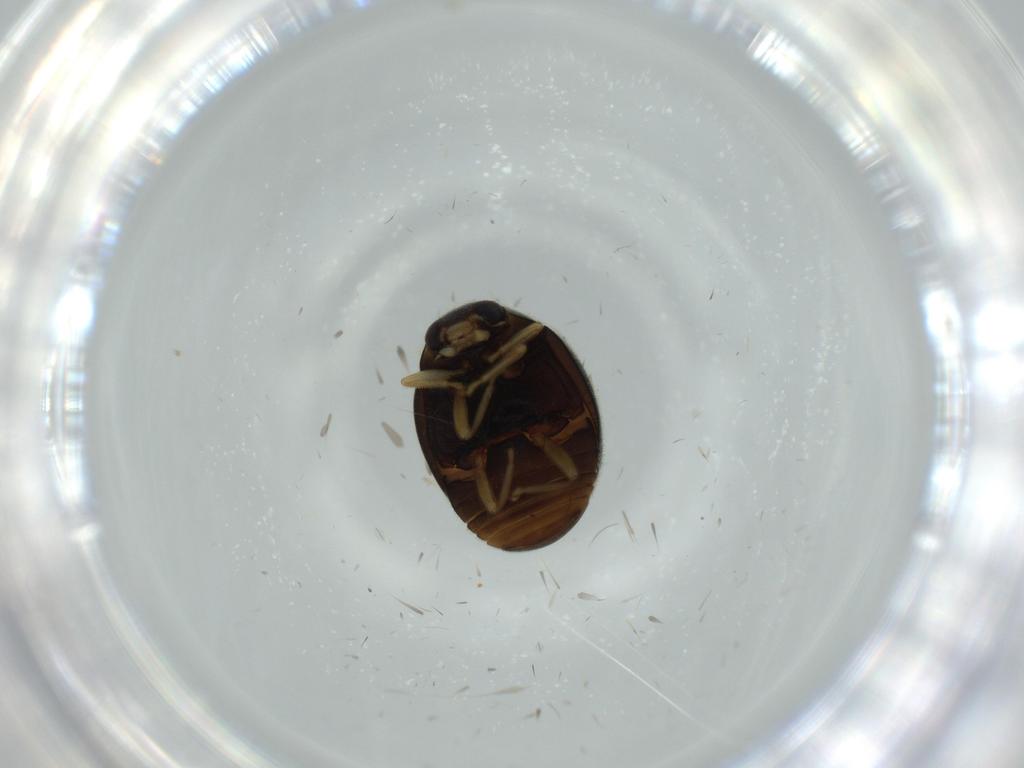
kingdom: Animalia
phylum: Arthropoda
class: Insecta
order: Coleoptera
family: Coccinellidae
